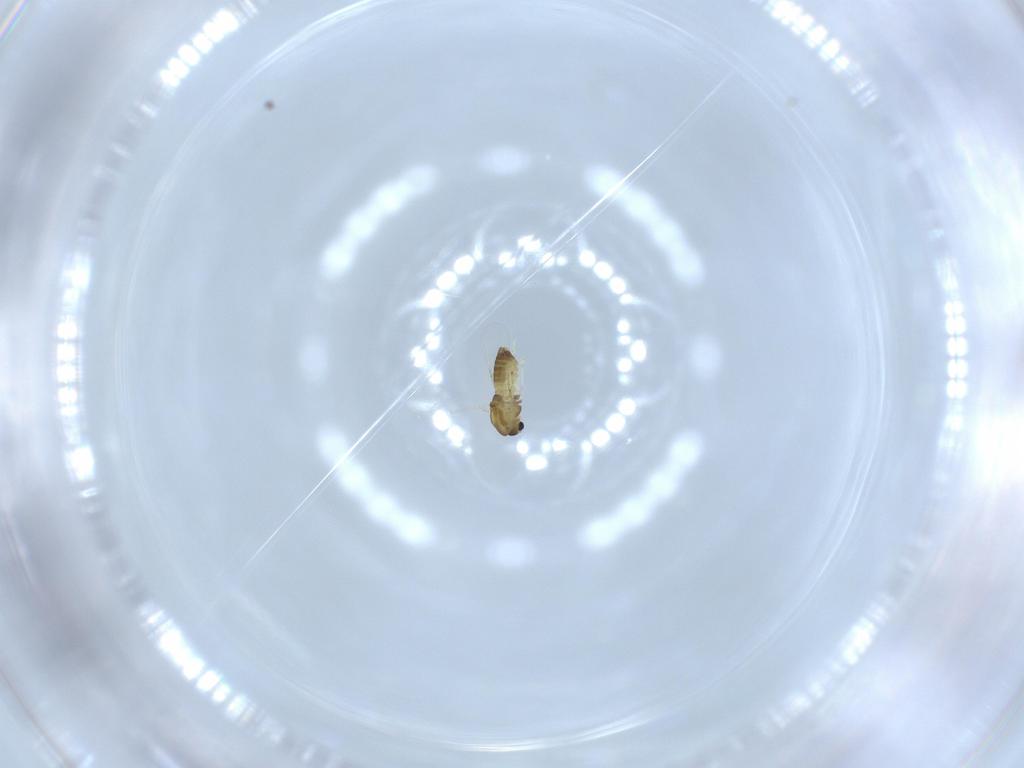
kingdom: Animalia
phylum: Arthropoda
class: Insecta
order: Diptera
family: Chironomidae
